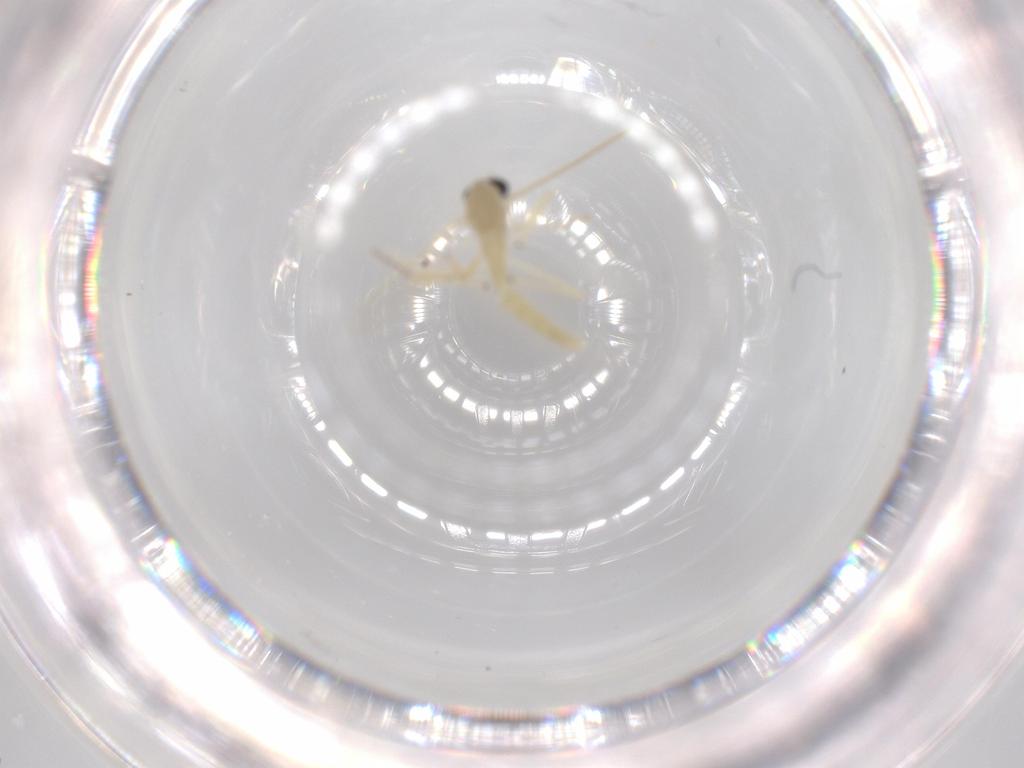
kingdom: Animalia
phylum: Arthropoda
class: Insecta
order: Diptera
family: Chironomidae
